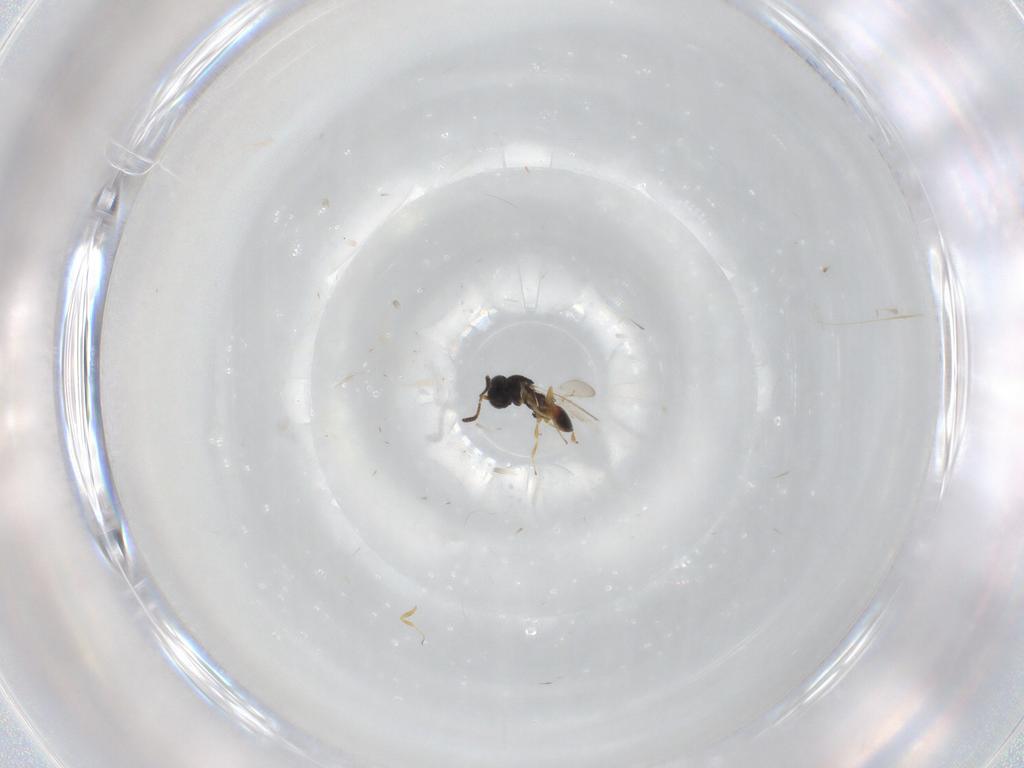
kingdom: Animalia
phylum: Arthropoda
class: Insecta
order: Hymenoptera
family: Scelionidae
